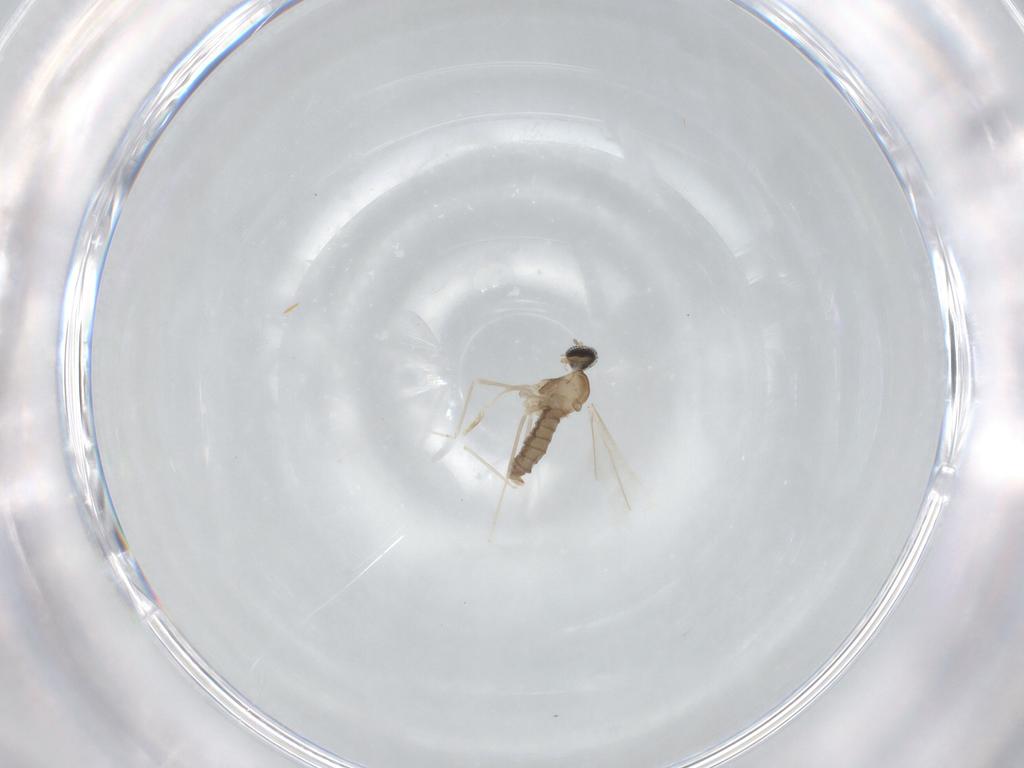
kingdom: Animalia
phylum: Arthropoda
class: Insecta
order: Diptera
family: Cecidomyiidae
